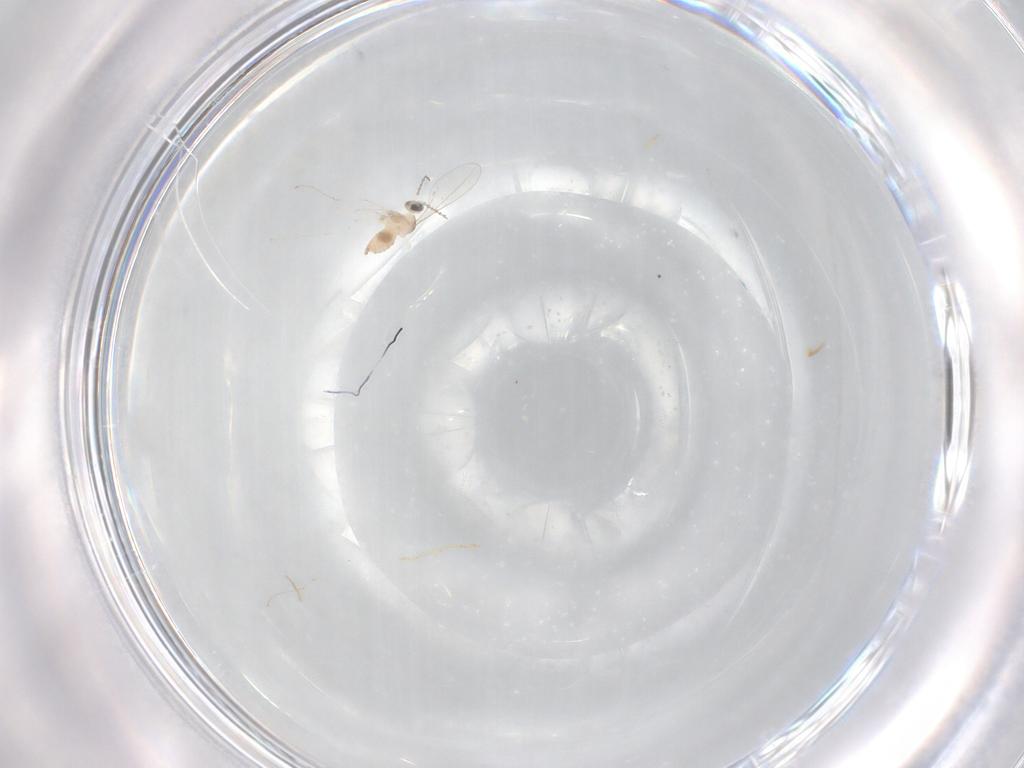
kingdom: Animalia
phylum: Arthropoda
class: Insecta
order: Diptera
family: Cecidomyiidae
